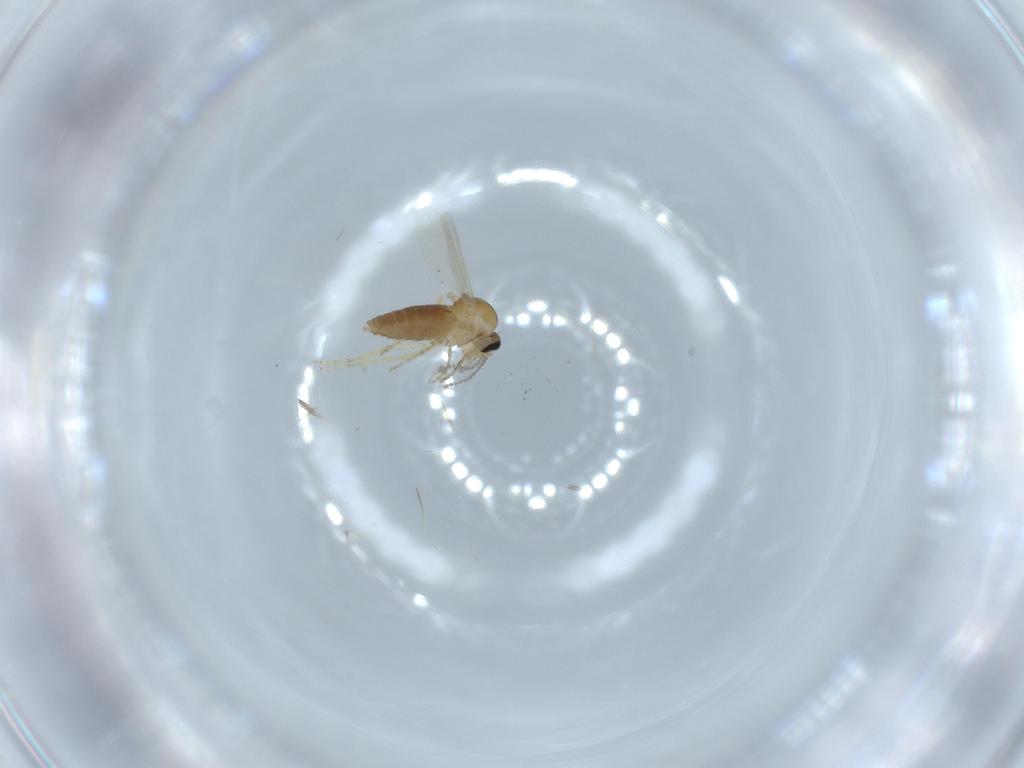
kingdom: Animalia
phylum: Arthropoda
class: Insecta
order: Diptera
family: Ceratopogonidae
